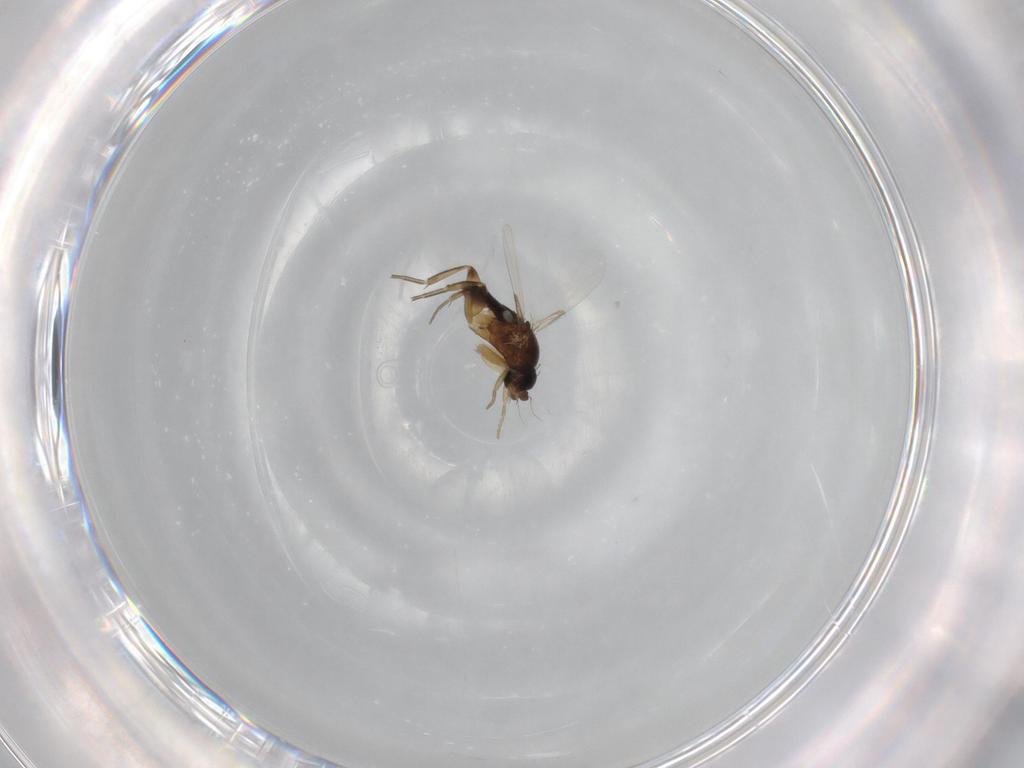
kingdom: Animalia
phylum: Arthropoda
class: Insecta
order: Diptera
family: Phoridae
